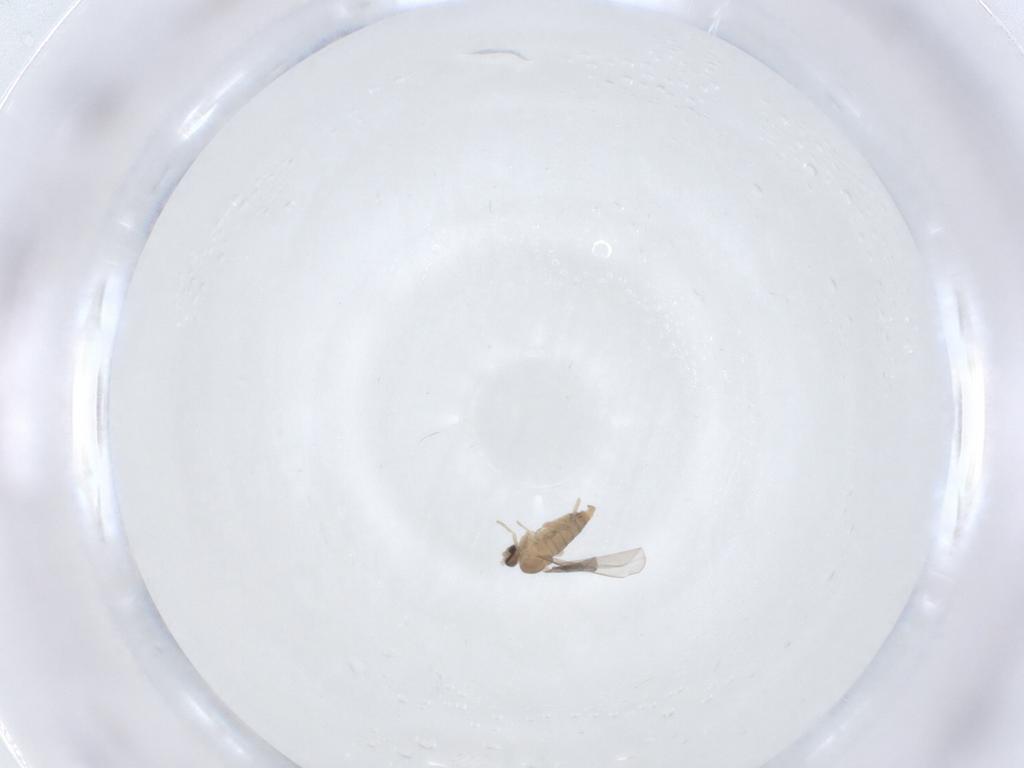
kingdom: Animalia
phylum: Arthropoda
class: Insecta
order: Diptera
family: Cecidomyiidae
